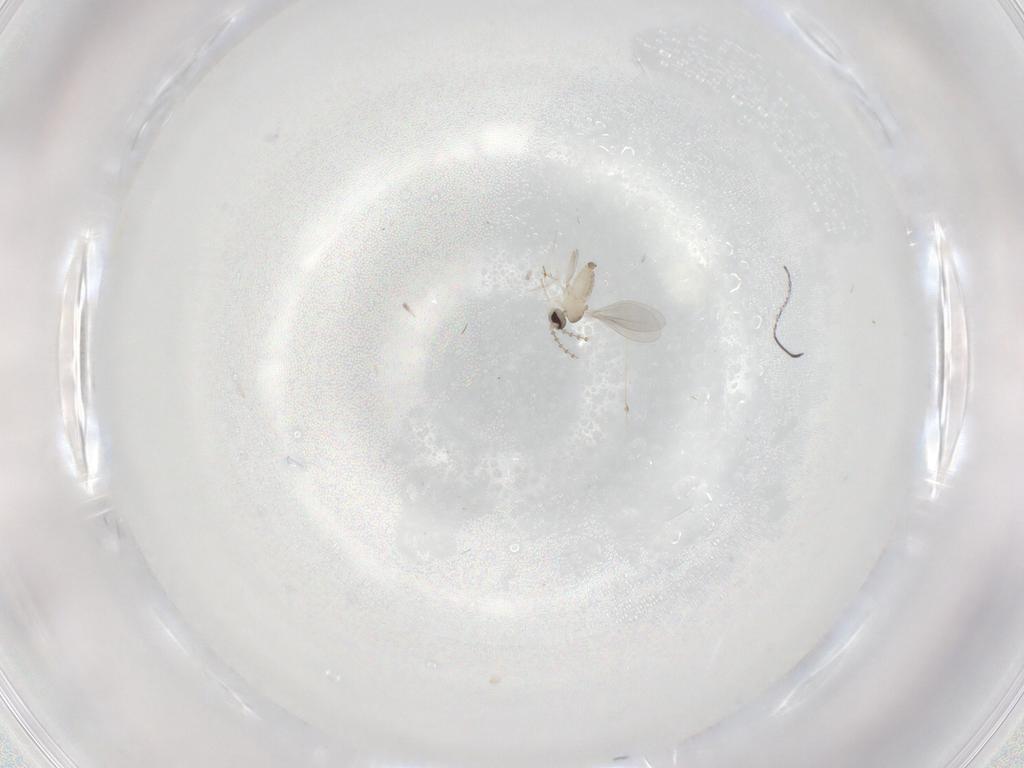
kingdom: Animalia
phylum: Arthropoda
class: Insecta
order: Diptera
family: Cecidomyiidae
